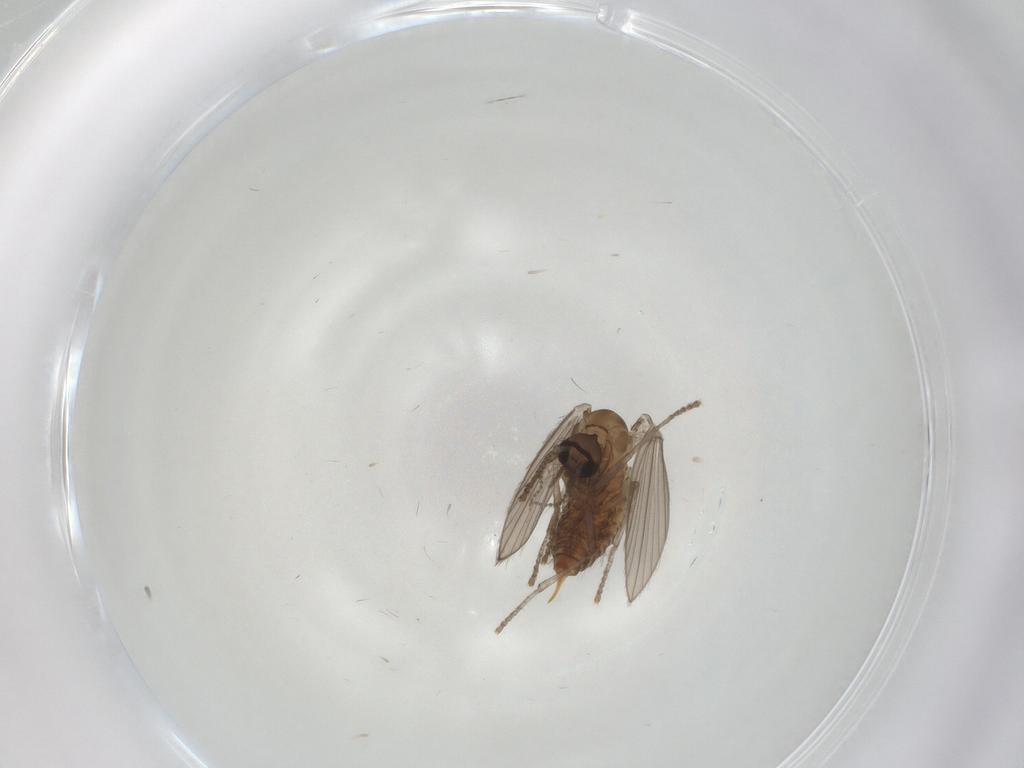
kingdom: Animalia
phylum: Arthropoda
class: Insecta
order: Diptera
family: Psychodidae
